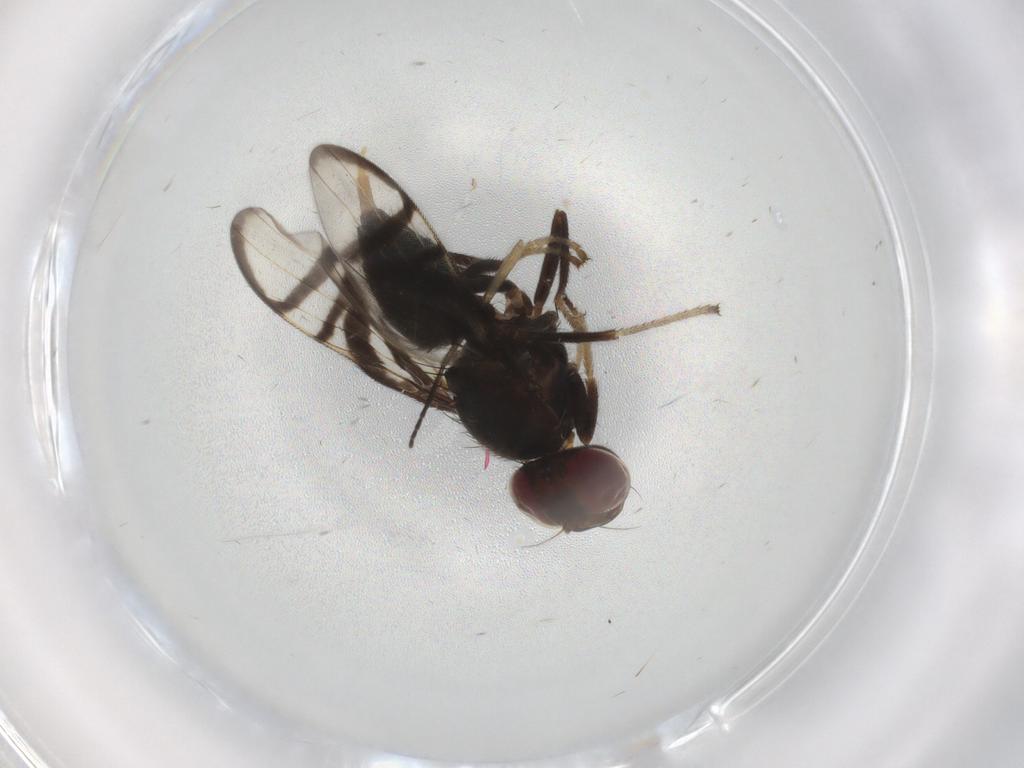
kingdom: Animalia
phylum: Arthropoda
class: Insecta
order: Diptera
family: Sciaridae
